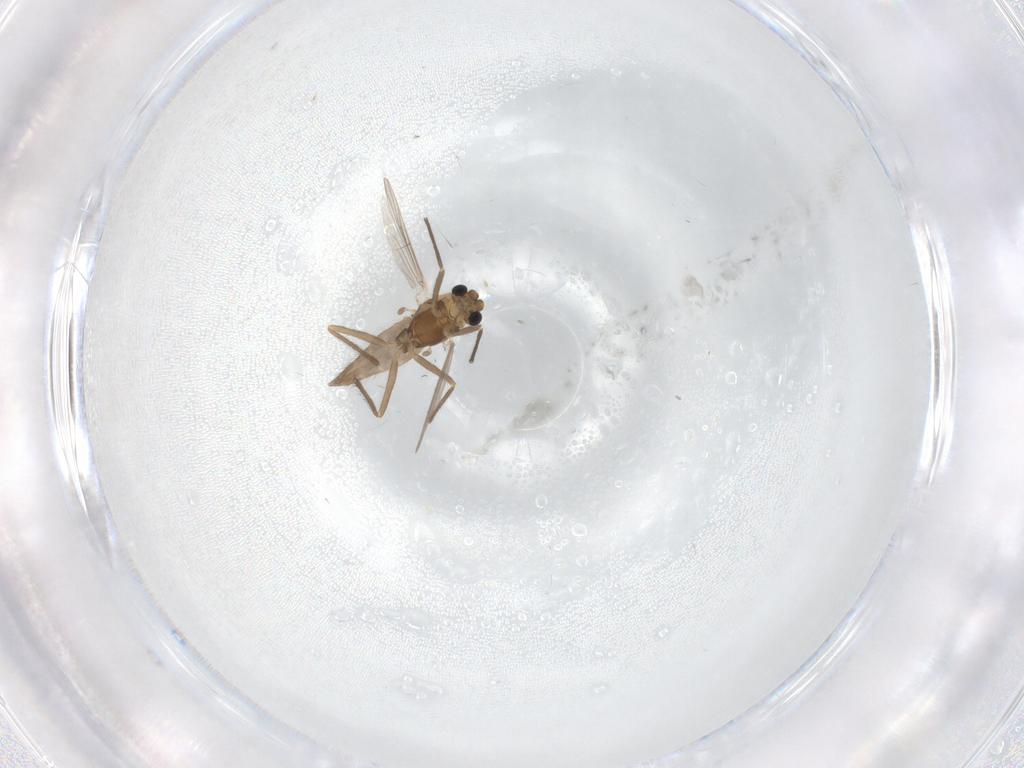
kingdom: Animalia
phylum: Arthropoda
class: Insecta
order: Diptera
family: Chironomidae
